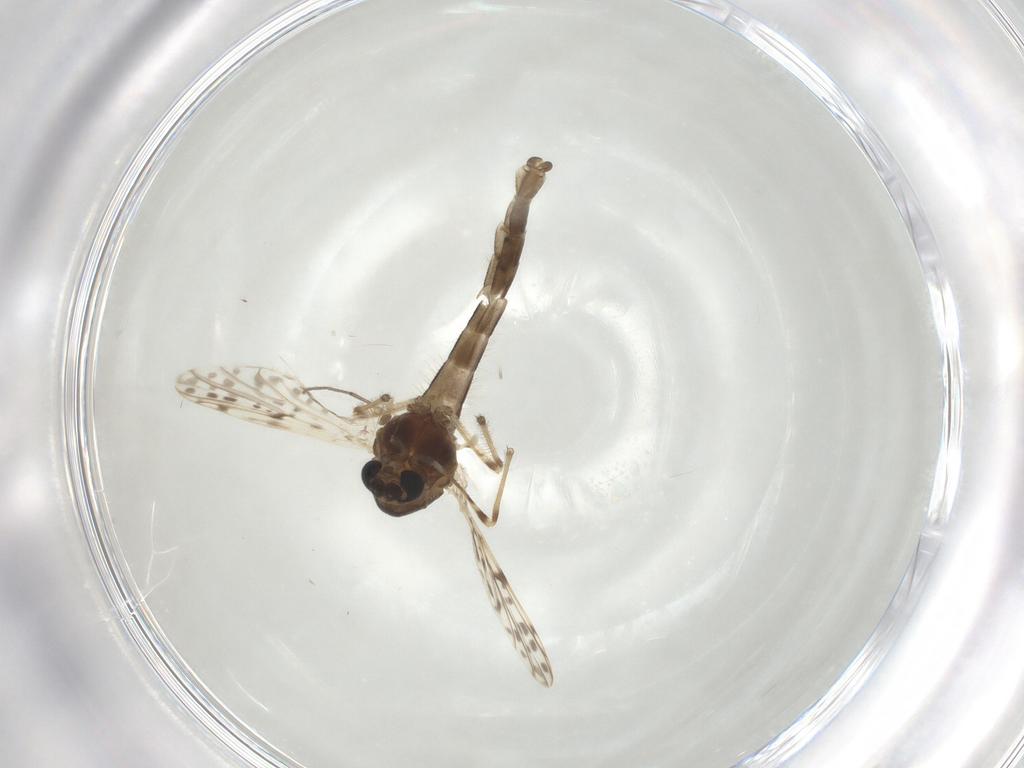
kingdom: Animalia
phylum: Arthropoda
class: Insecta
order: Diptera
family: Chironomidae
